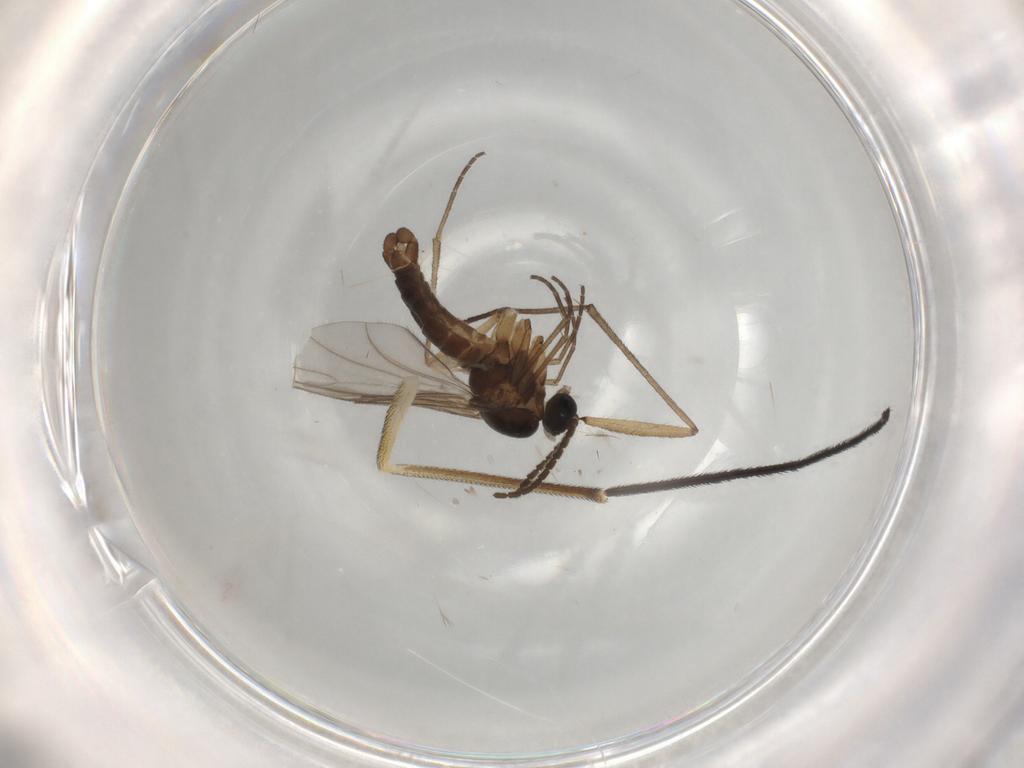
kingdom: Animalia
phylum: Arthropoda
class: Insecta
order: Diptera
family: Sciaridae
